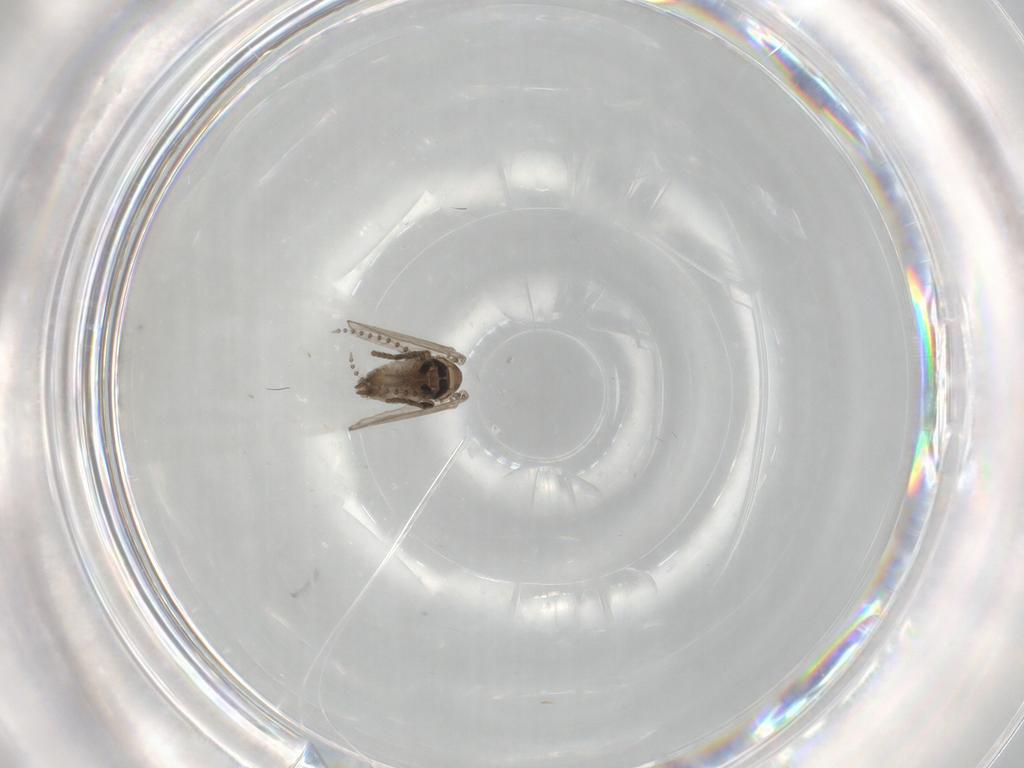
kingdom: Animalia
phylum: Arthropoda
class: Insecta
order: Diptera
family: Psychodidae
